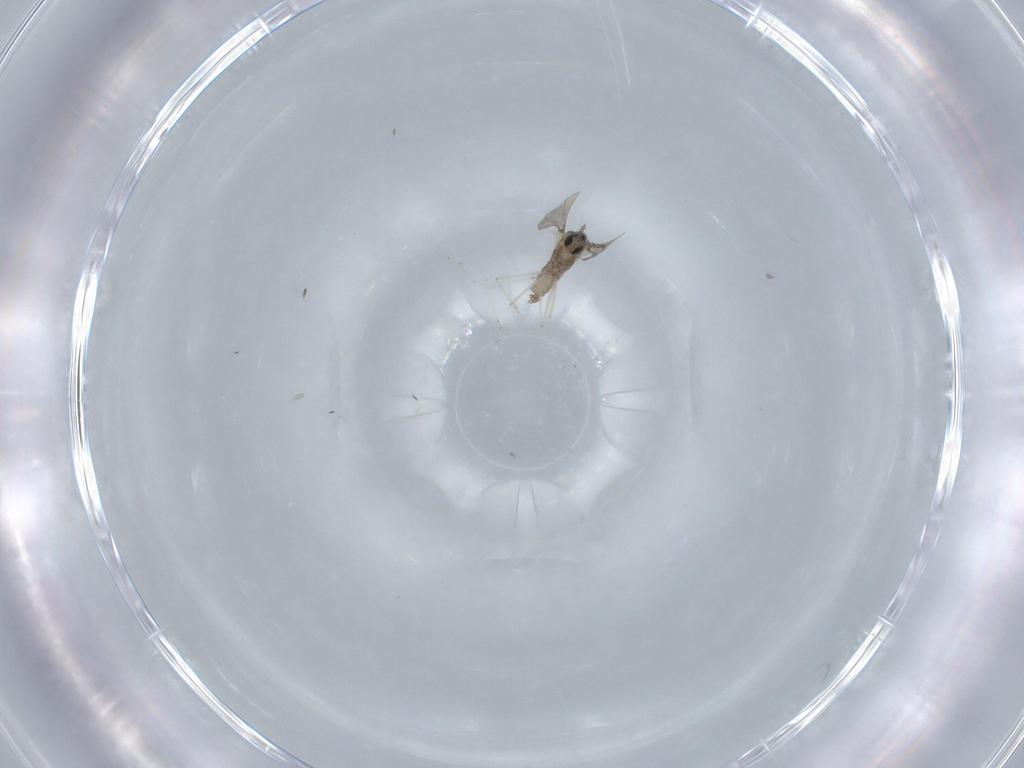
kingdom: Animalia
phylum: Arthropoda
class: Insecta
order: Diptera
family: Cecidomyiidae
